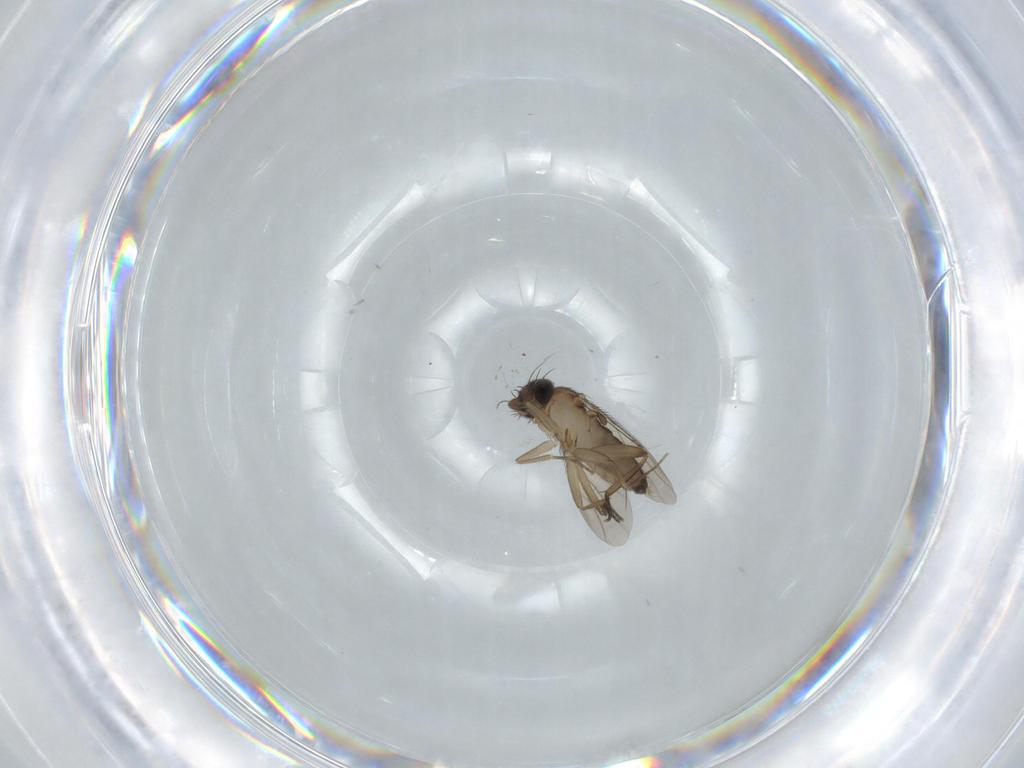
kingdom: Animalia
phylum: Arthropoda
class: Insecta
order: Diptera
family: Phoridae
